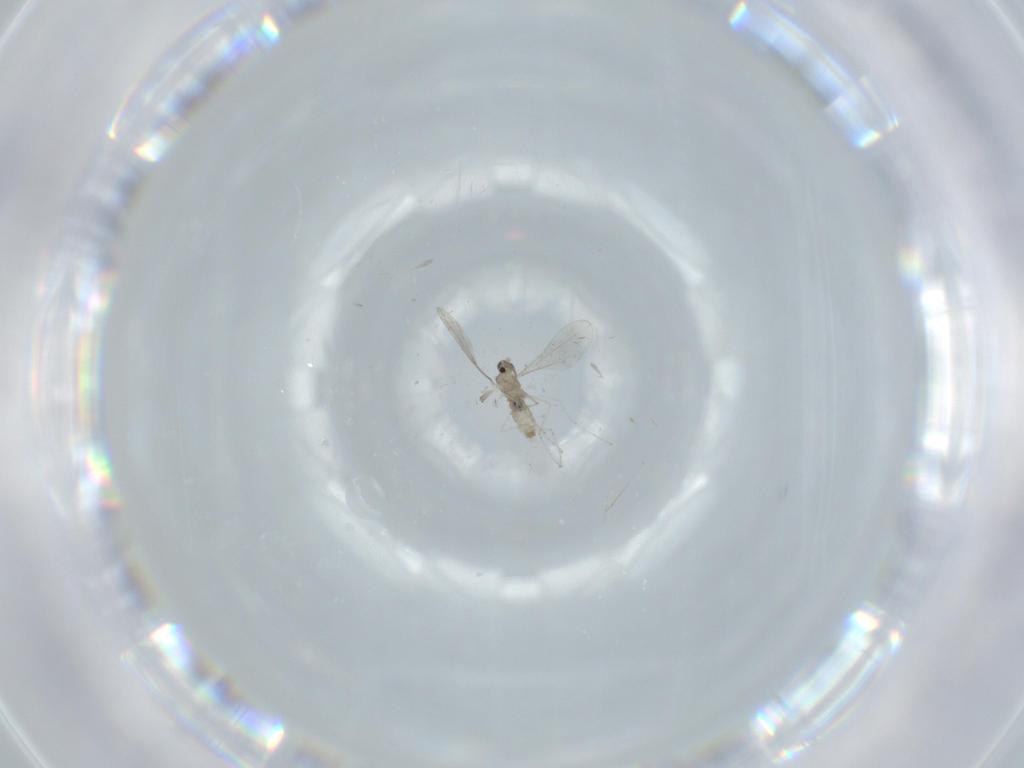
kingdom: Animalia
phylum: Arthropoda
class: Insecta
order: Diptera
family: Cecidomyiidae
